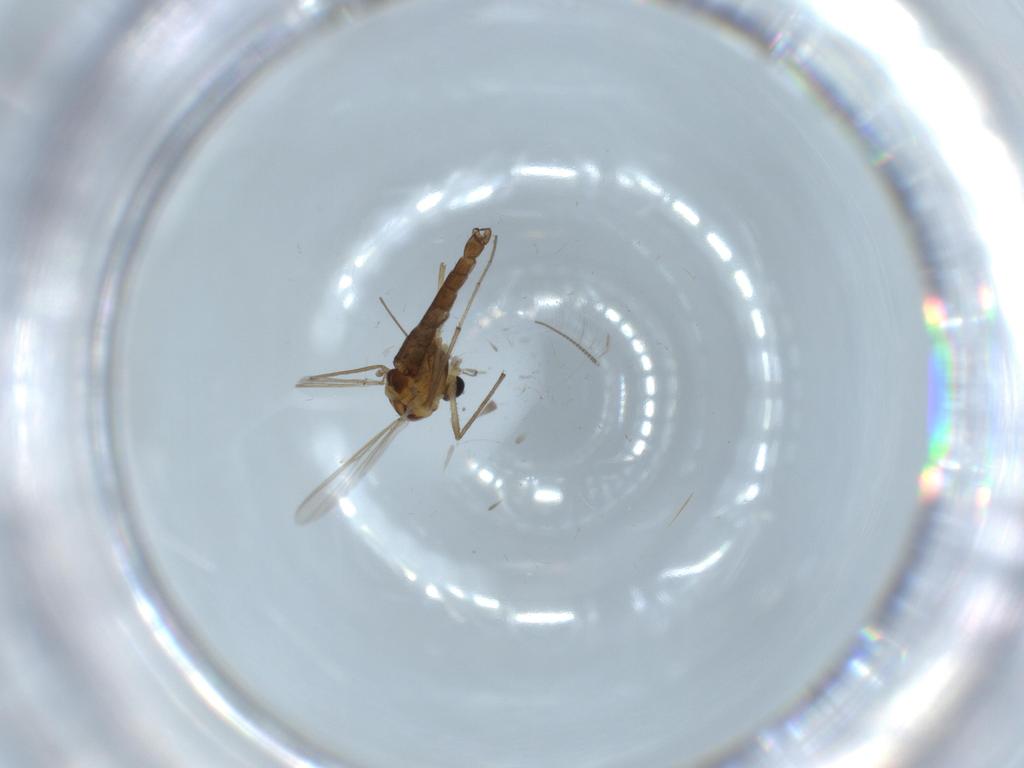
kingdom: Animalia
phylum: Arthropoda
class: Insecta
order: Diptera
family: Chironomidae
